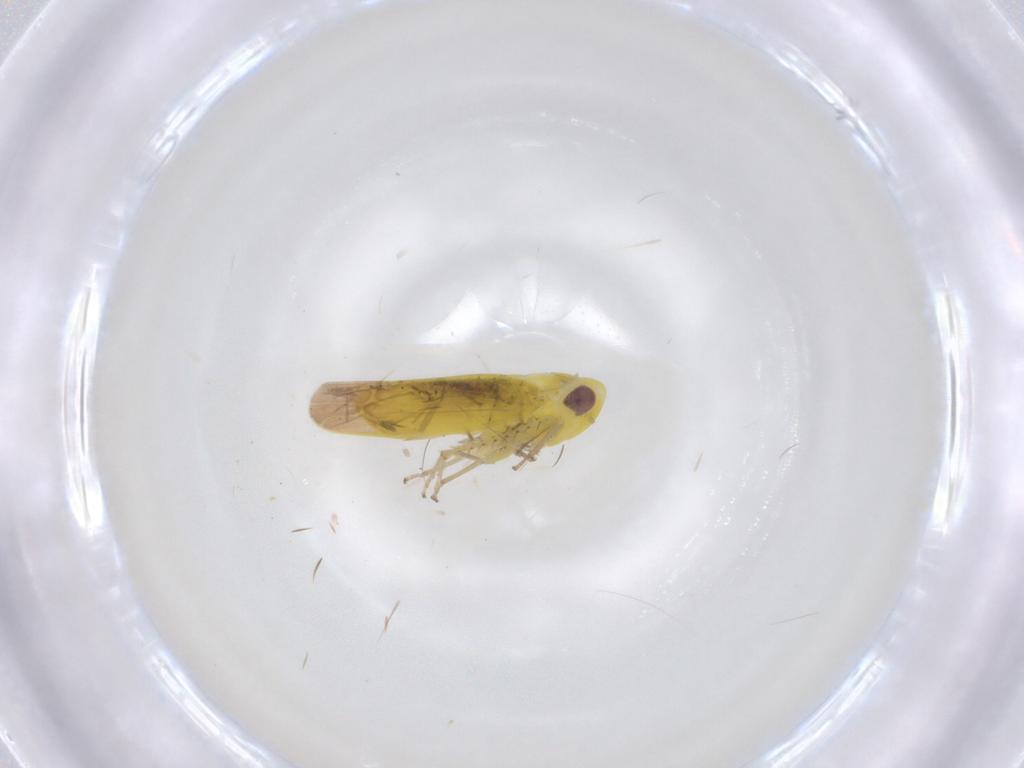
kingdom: Animalia
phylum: Arthropoda
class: Insecta
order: Hemiptera
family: Cicadellidae
